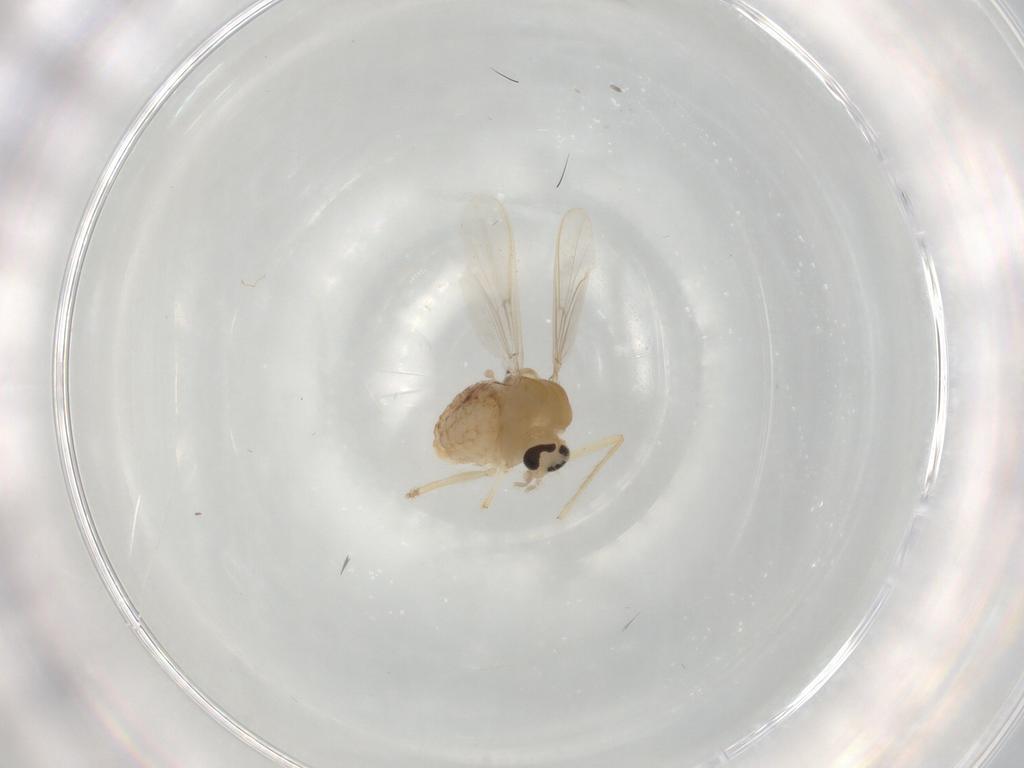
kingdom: Animalia
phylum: Arthropoda
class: Insecta
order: Diptera
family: Chironomidae
